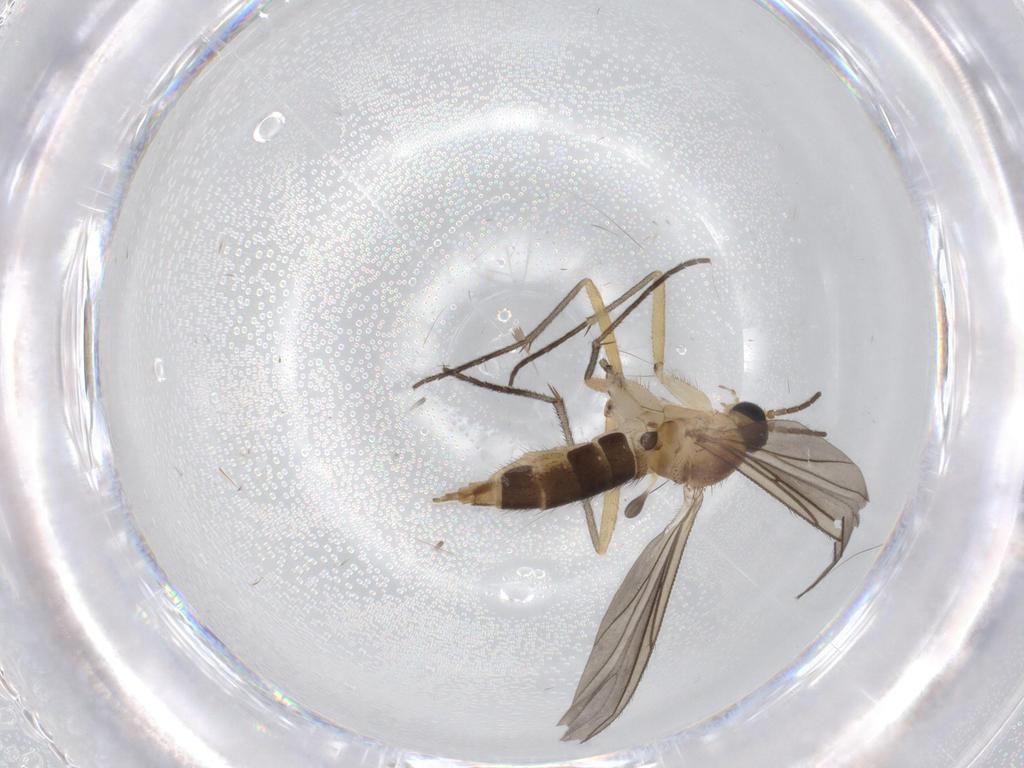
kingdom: Animalia
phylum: Arthropoda
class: Insecta
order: Diptera
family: Sciaridae
